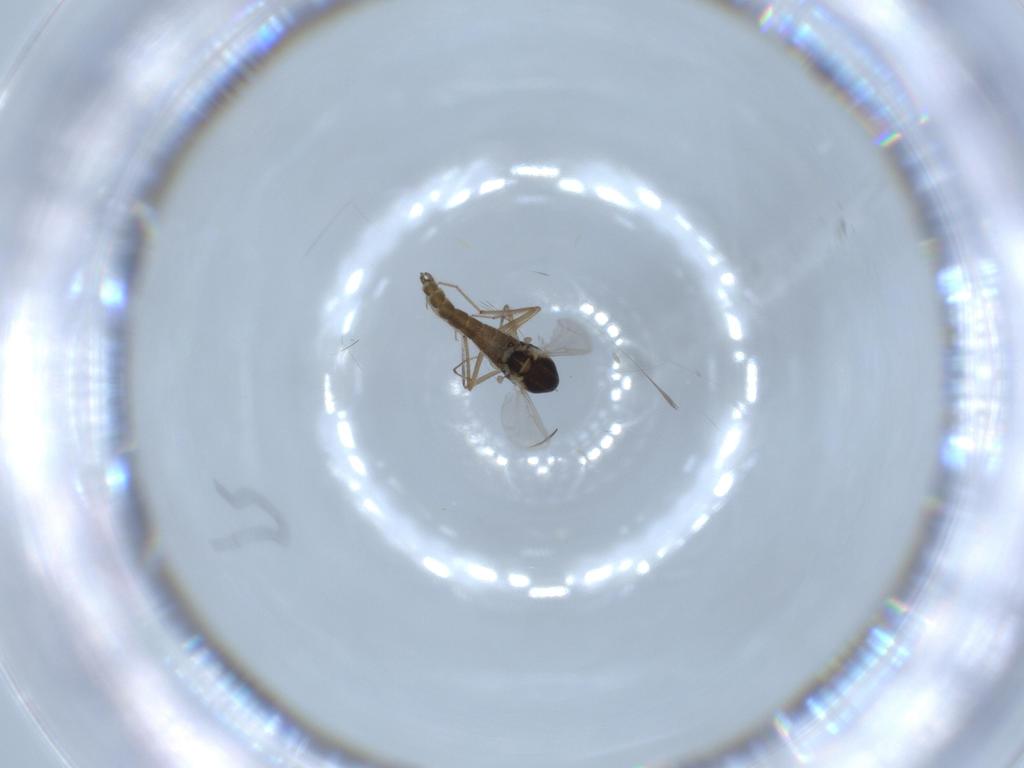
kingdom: Animalia
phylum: Arthropoda
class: Insecta
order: Diptera
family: Chironomidae
